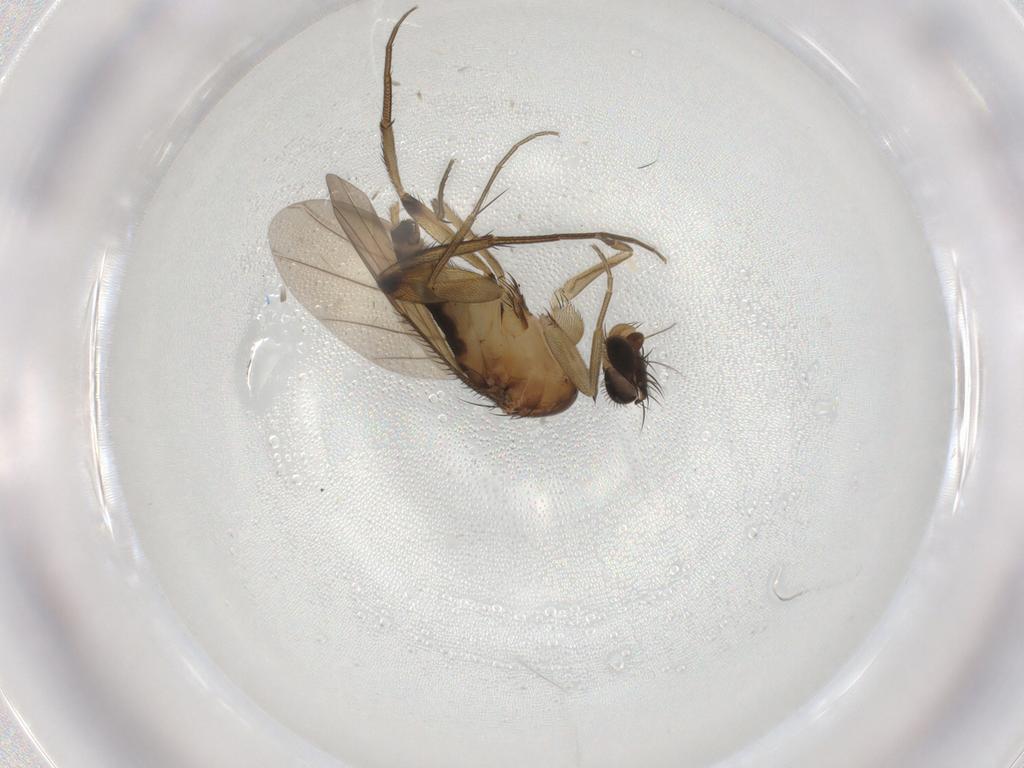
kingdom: Animalia
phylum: Arthropoda
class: Insecta
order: Diptera
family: Phoridae
